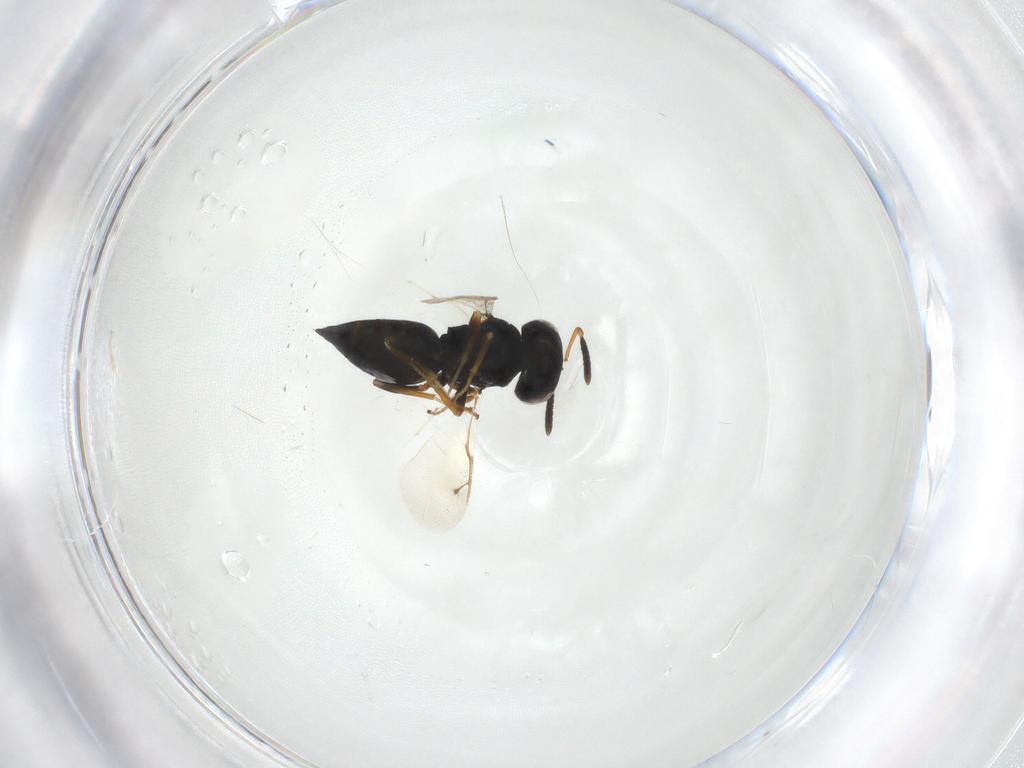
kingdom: Animalia
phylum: Arthropoda
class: Insecta
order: Hymenoptera
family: Pteromalidae
